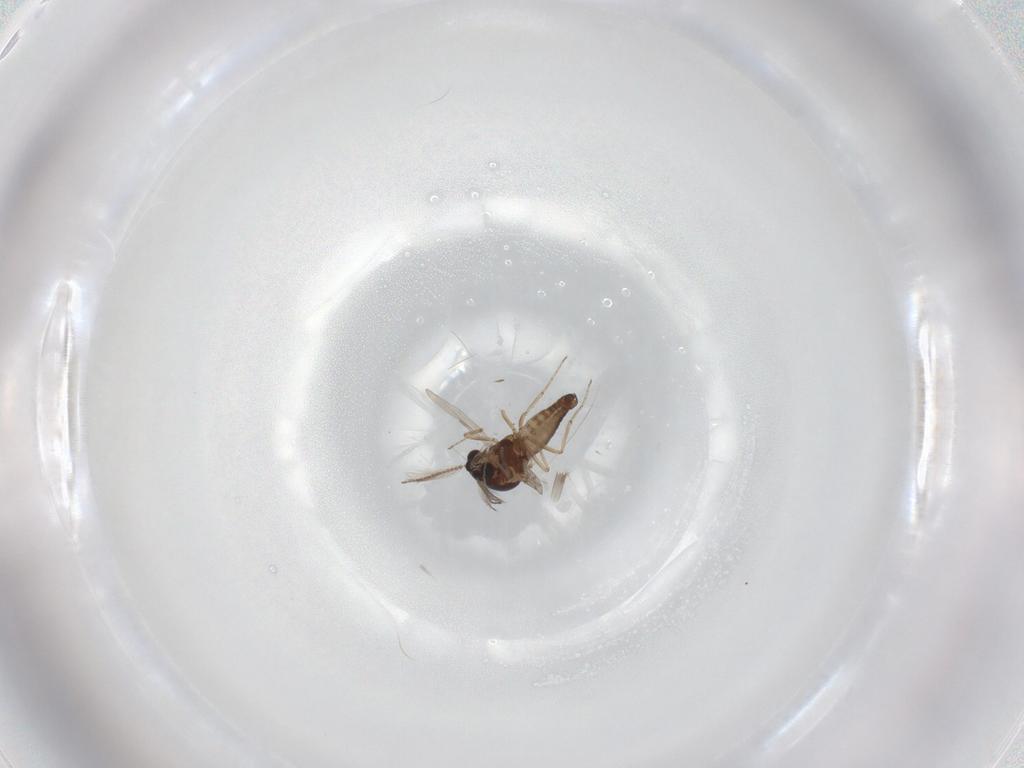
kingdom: Animalia
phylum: Arthropoda
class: Insecta
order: Diptera
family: Ceratopogonidae
